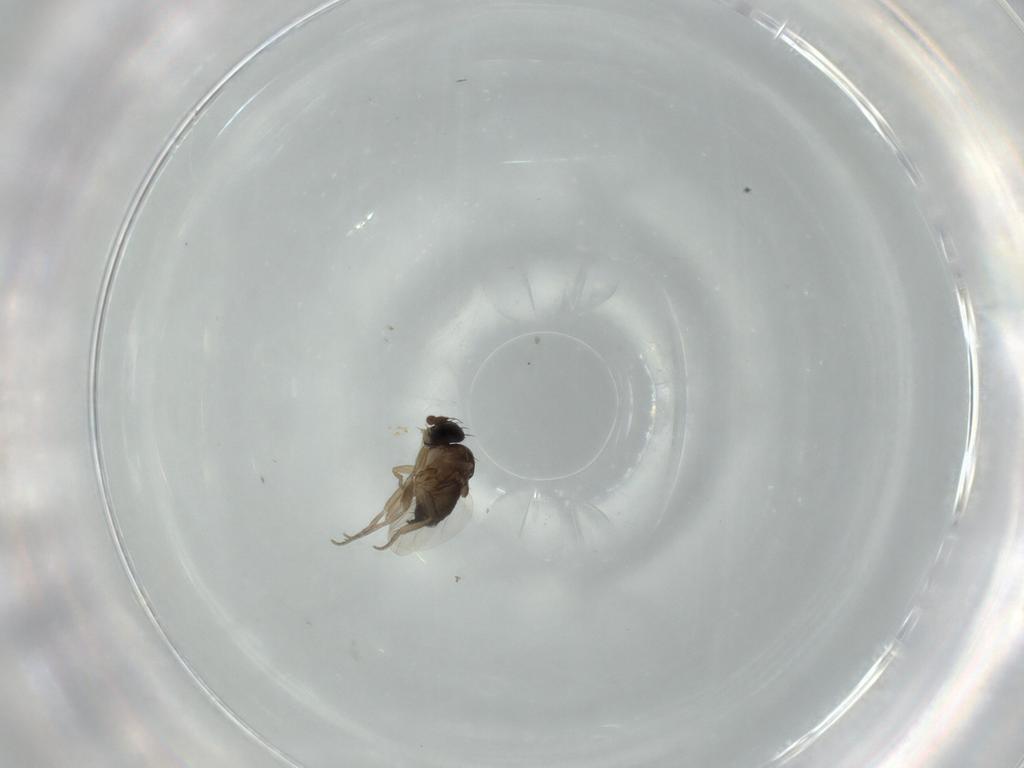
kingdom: Animalia
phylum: Arthropoda
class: Insecta
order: Diptera
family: Phoridae
